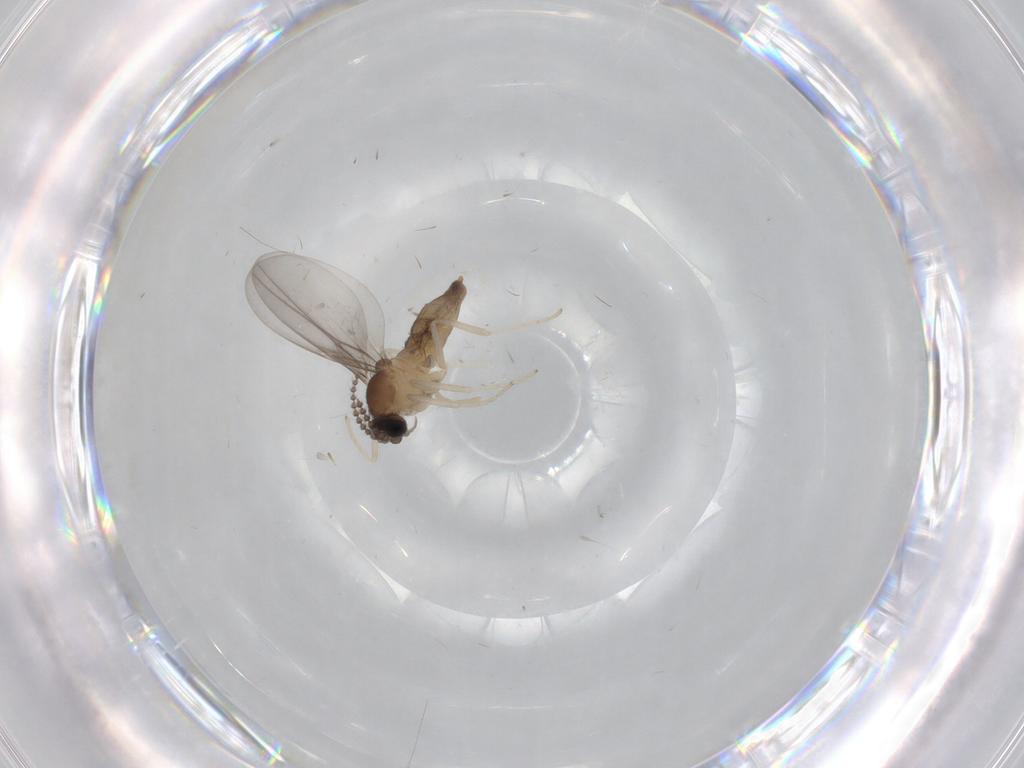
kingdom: Animalia
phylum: Arthropoda
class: Insecta
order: Diptera
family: Cecidomyiidae
